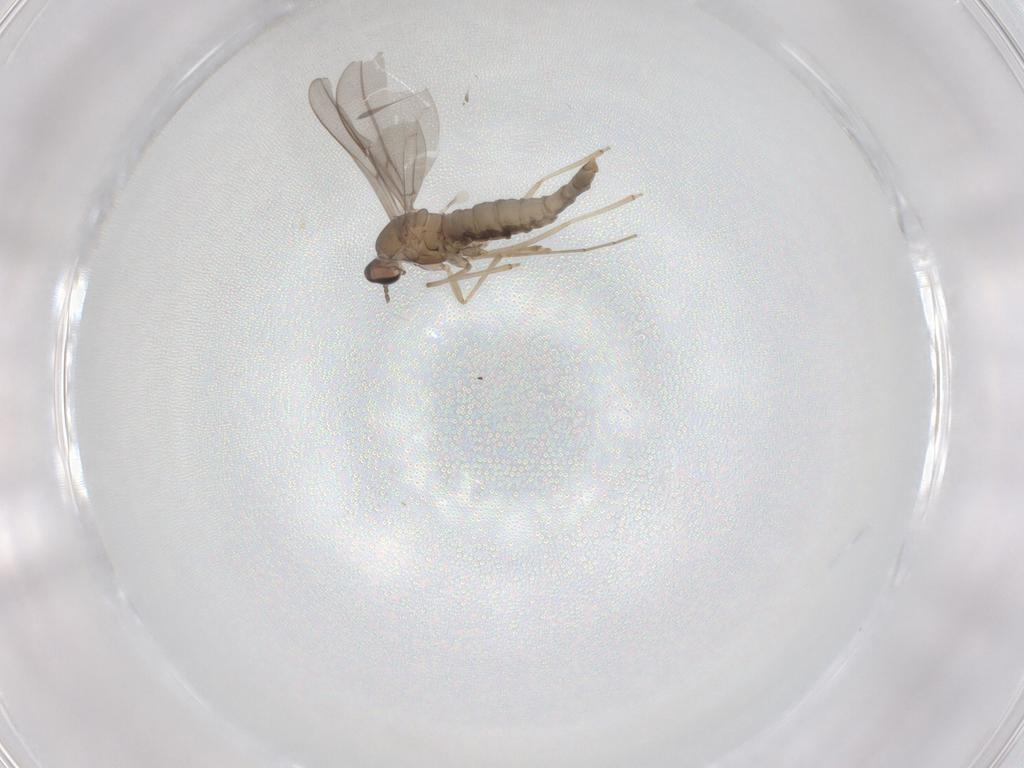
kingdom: Animalia
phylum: Arthropoda
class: Insecta
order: Diptera
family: Cecidomyiidae
